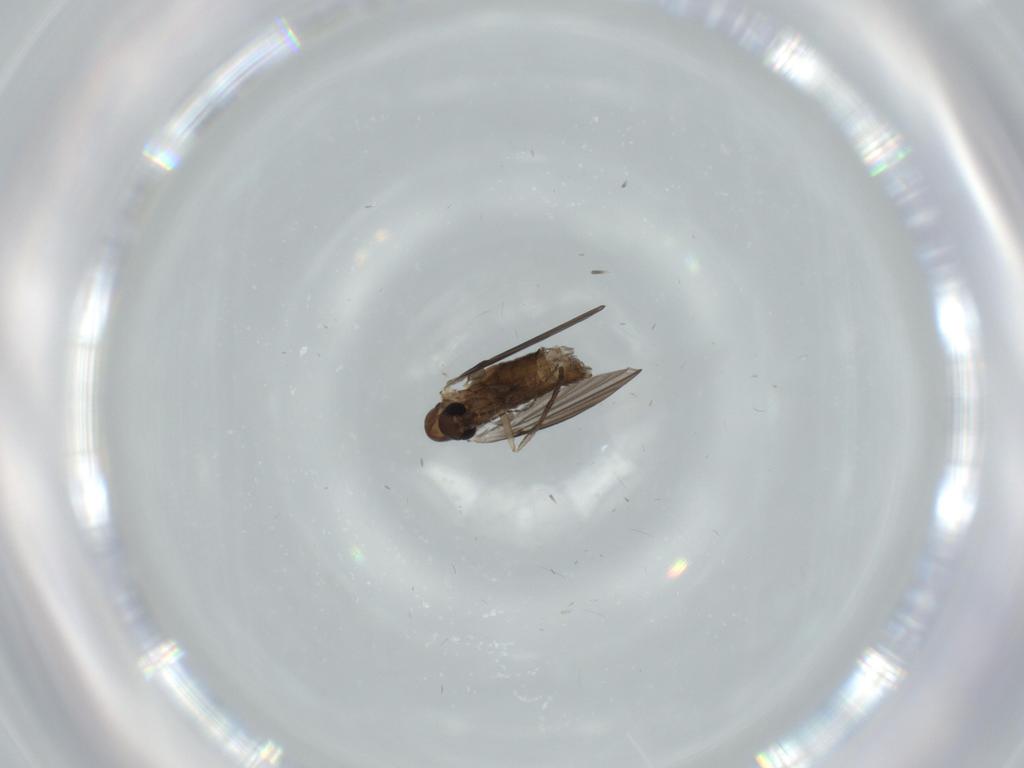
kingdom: Animalia
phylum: Arthropoda
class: Insecta
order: Diptera
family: Psychodidae
